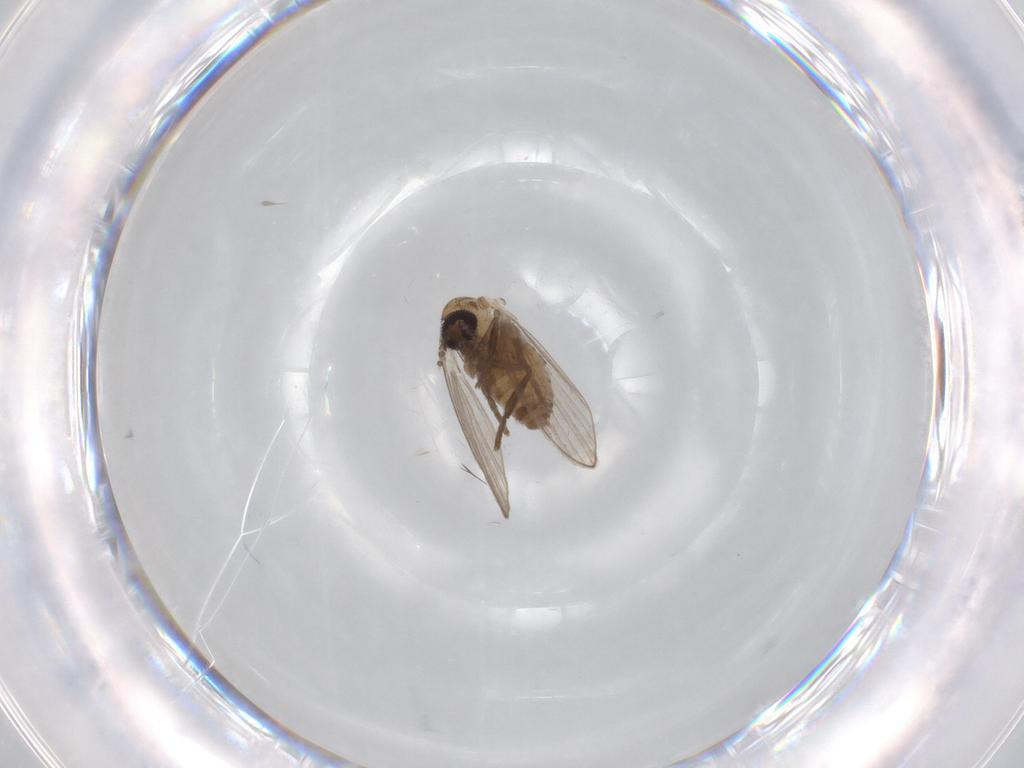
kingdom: Animalia
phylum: Arthropoda
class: Insecta
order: Diptera
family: Psychodidae
